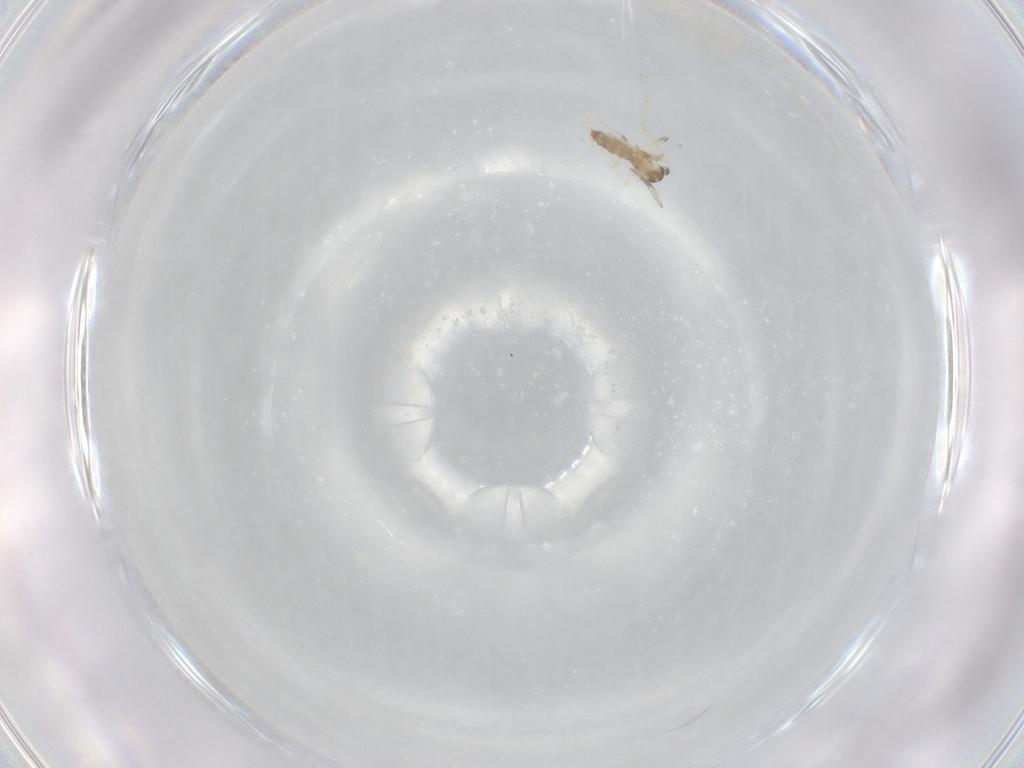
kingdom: Animalia
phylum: Arthropoda
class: Insecta
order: Diptera
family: Cecidomyiidae
